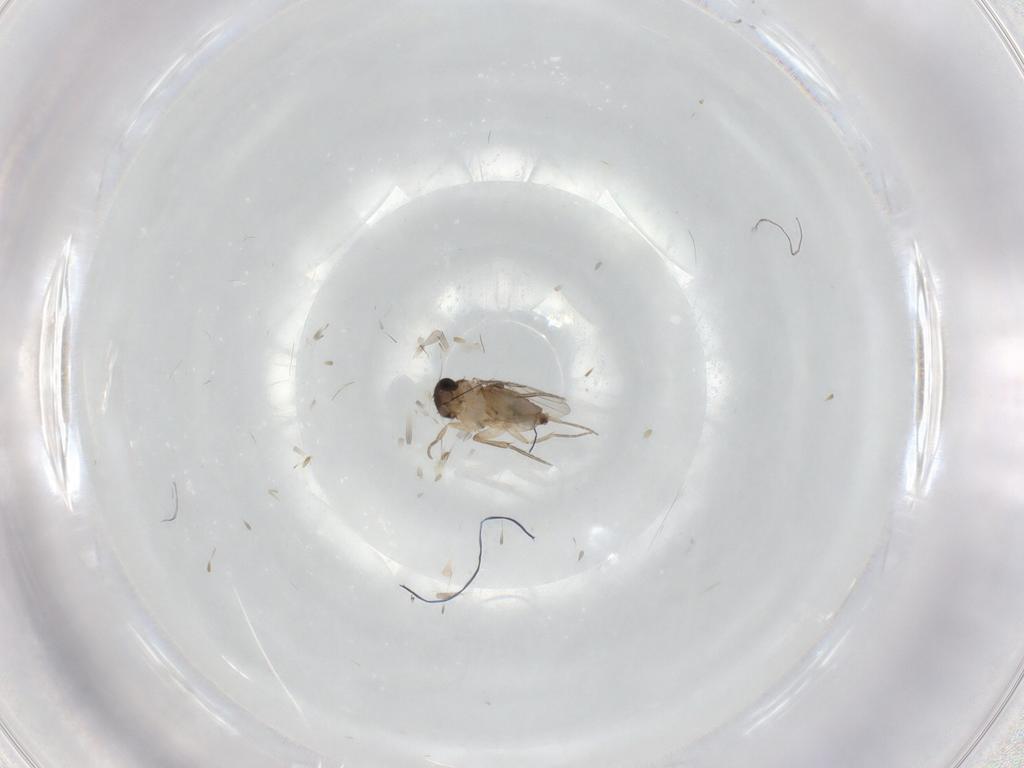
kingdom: Animalia
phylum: Arthropoda
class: Insecta
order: Diptera
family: Phoridae
